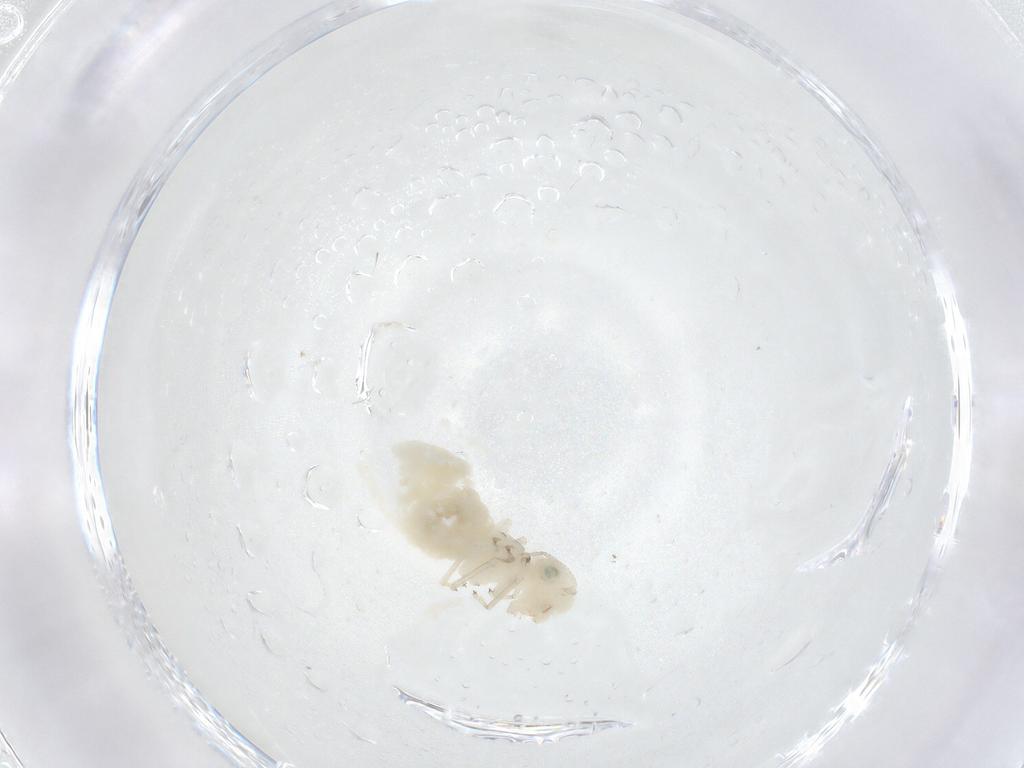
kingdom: Animalia
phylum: Arthropoda
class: Insecta
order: Psocodea
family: Caeciliusidae
